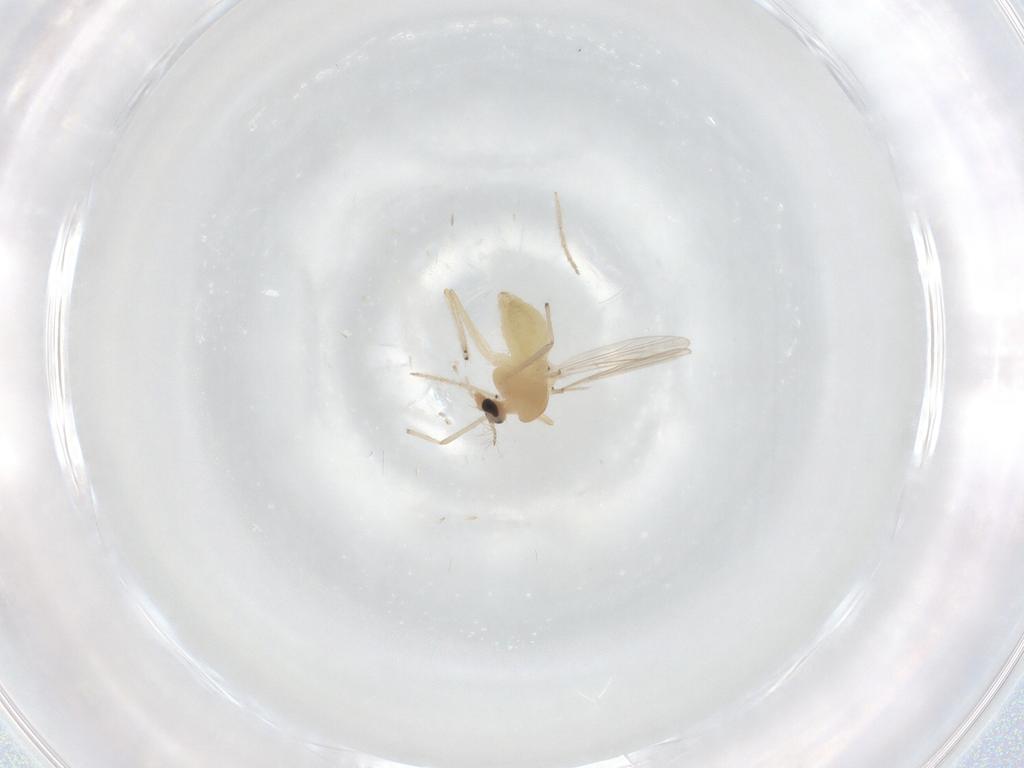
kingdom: Animalia
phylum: Arthropoda
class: Insecta
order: Diptera
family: Chironomidae
